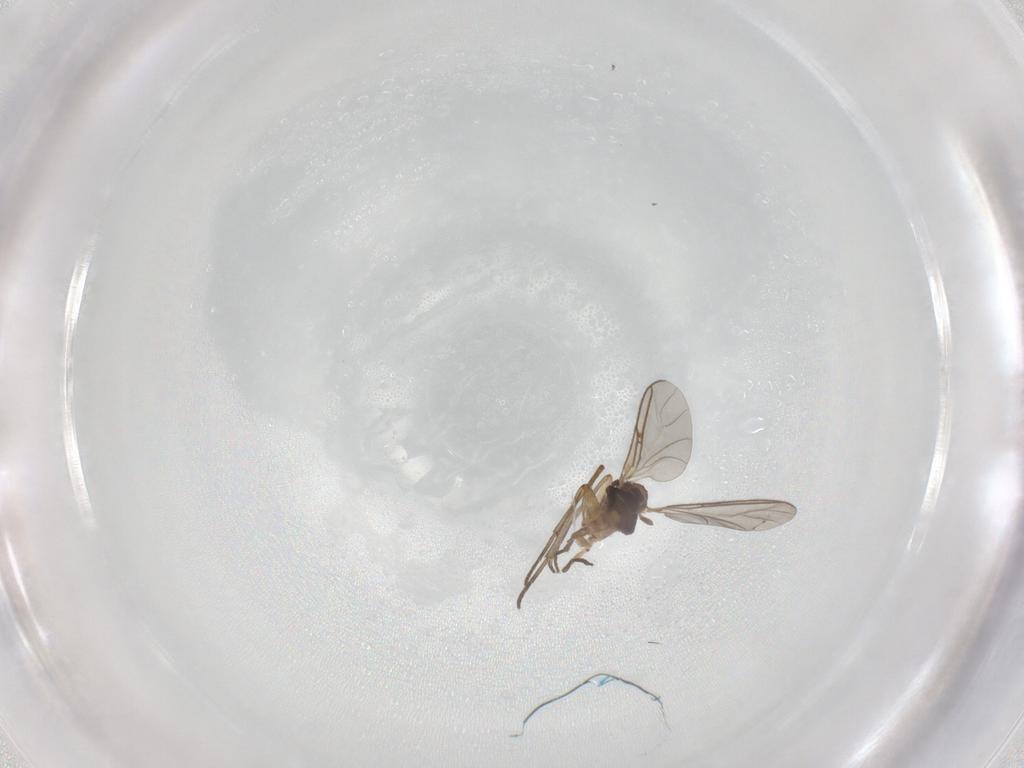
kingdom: Animalia
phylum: Arthropoda
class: Insecta
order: Diptera
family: Sciaridae
